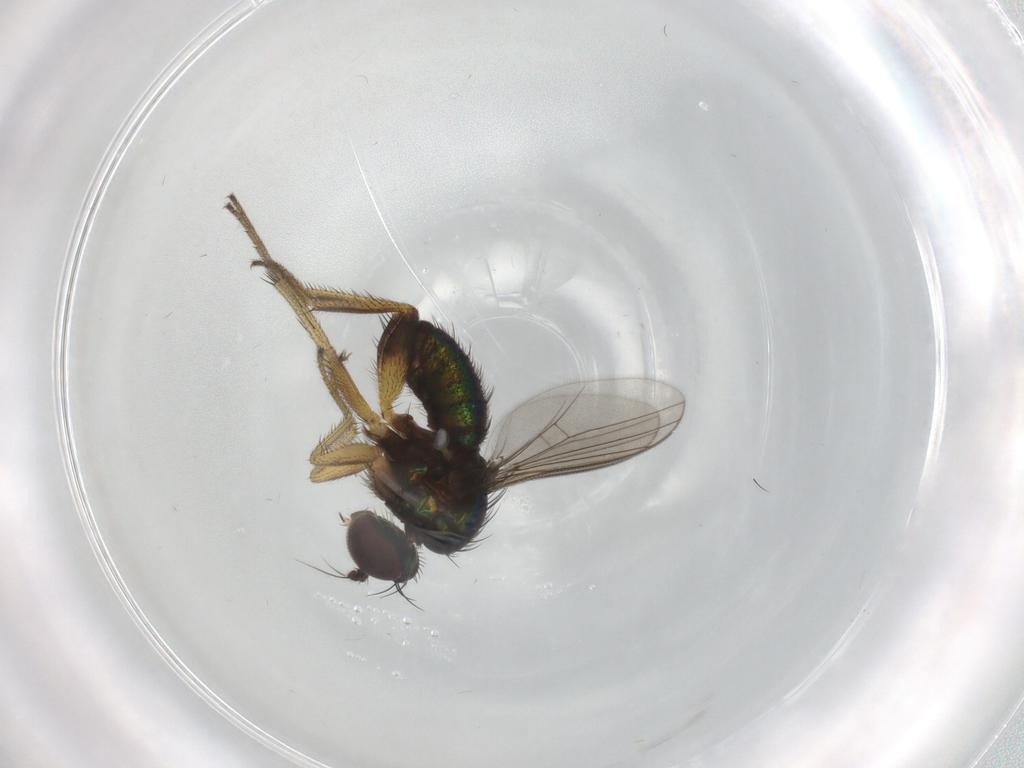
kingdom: Animalia
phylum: Arthropoda
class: Insecta
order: Diptera
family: Dolichopodidae
